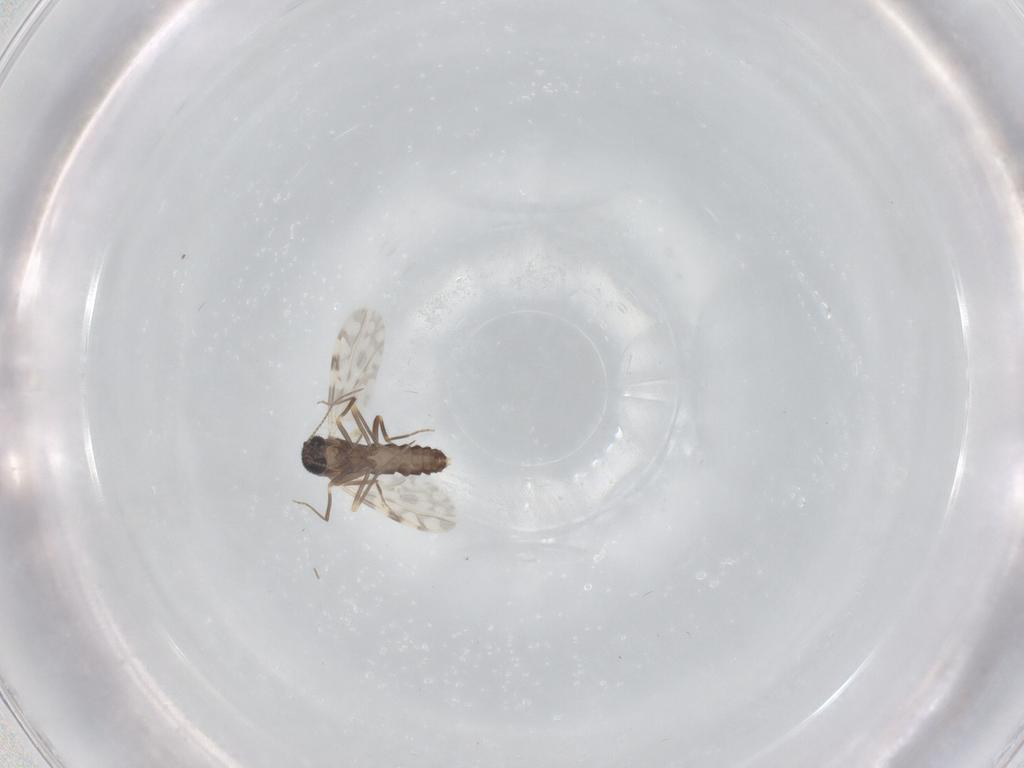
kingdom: Animalia
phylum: Arthropoda
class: Insecta
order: Diptera
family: Ceratopogonidae
